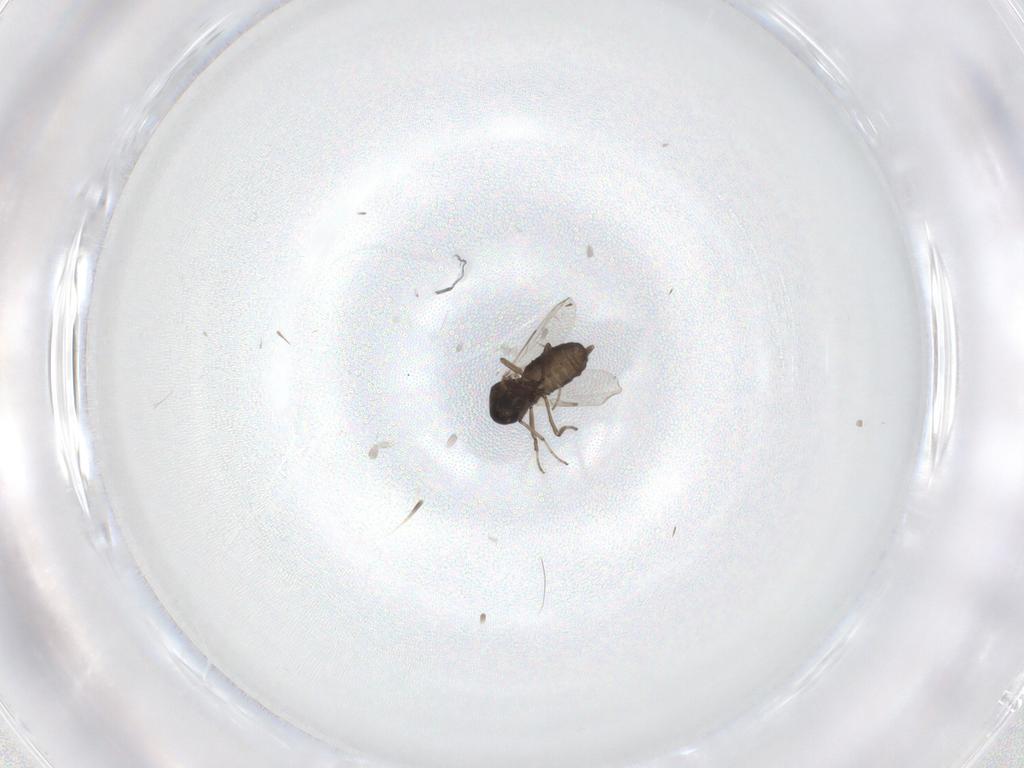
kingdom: Animalia
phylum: Arthropoda
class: Insecta
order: Diptera
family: Ceratopogonidae
